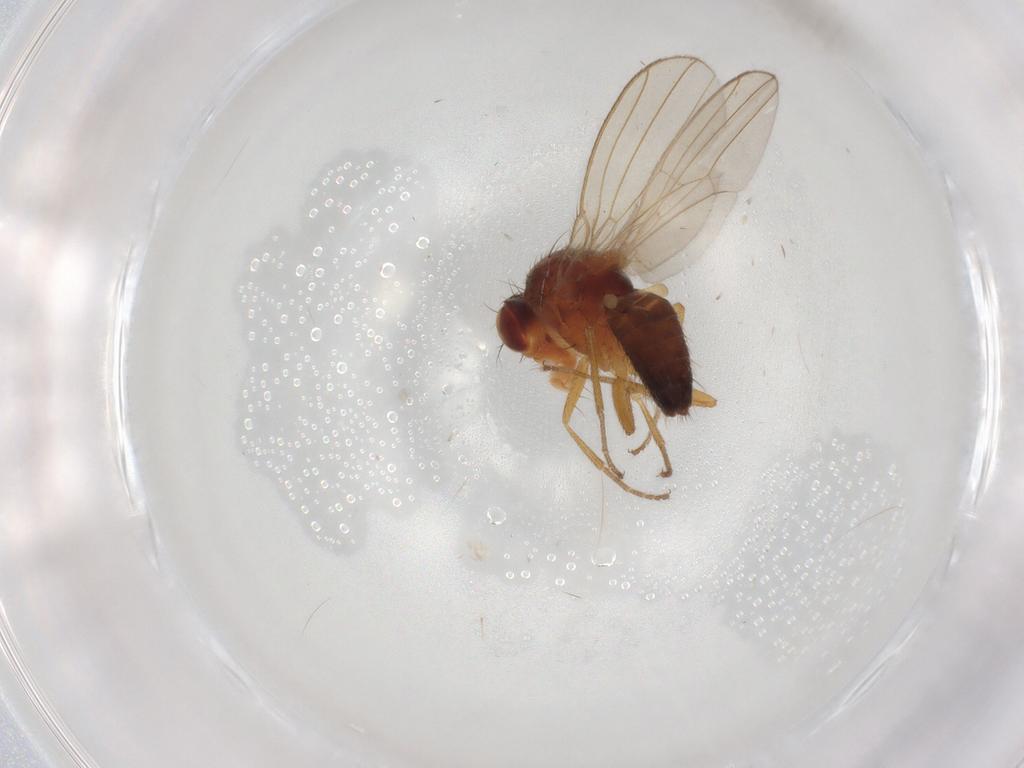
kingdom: Animalia
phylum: Arthropoda
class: Insecta
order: Diptera
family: Drosophilidae
